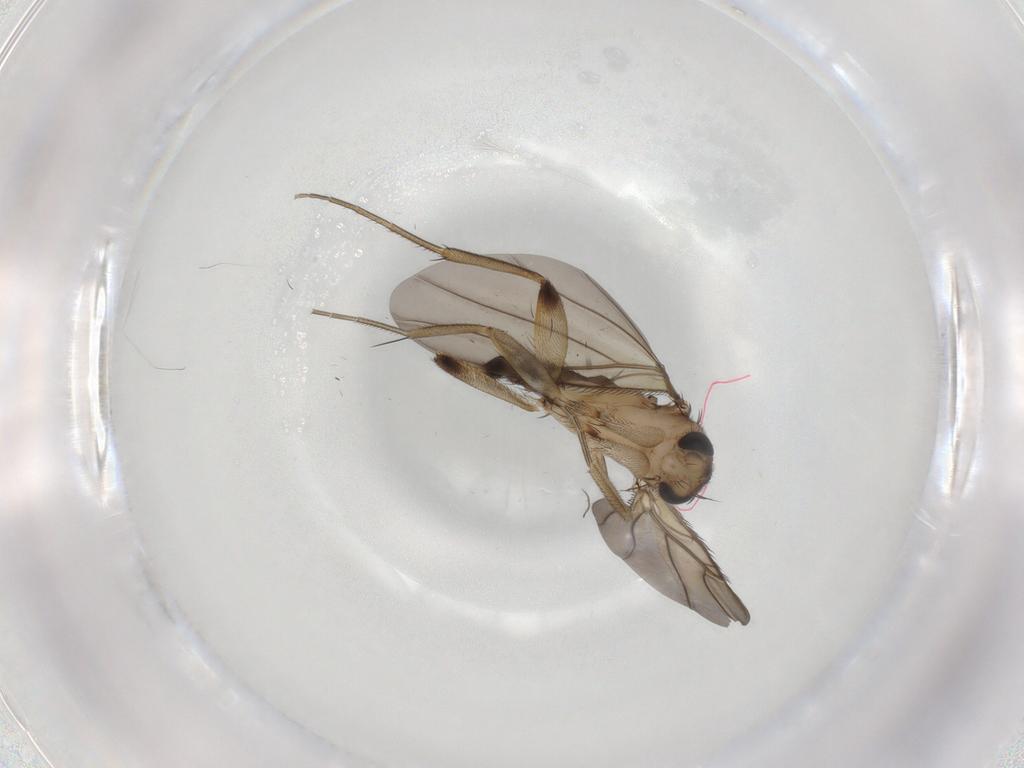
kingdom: Animalia
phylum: Arthropoda
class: Insecta
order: Diptera
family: Phoridae
